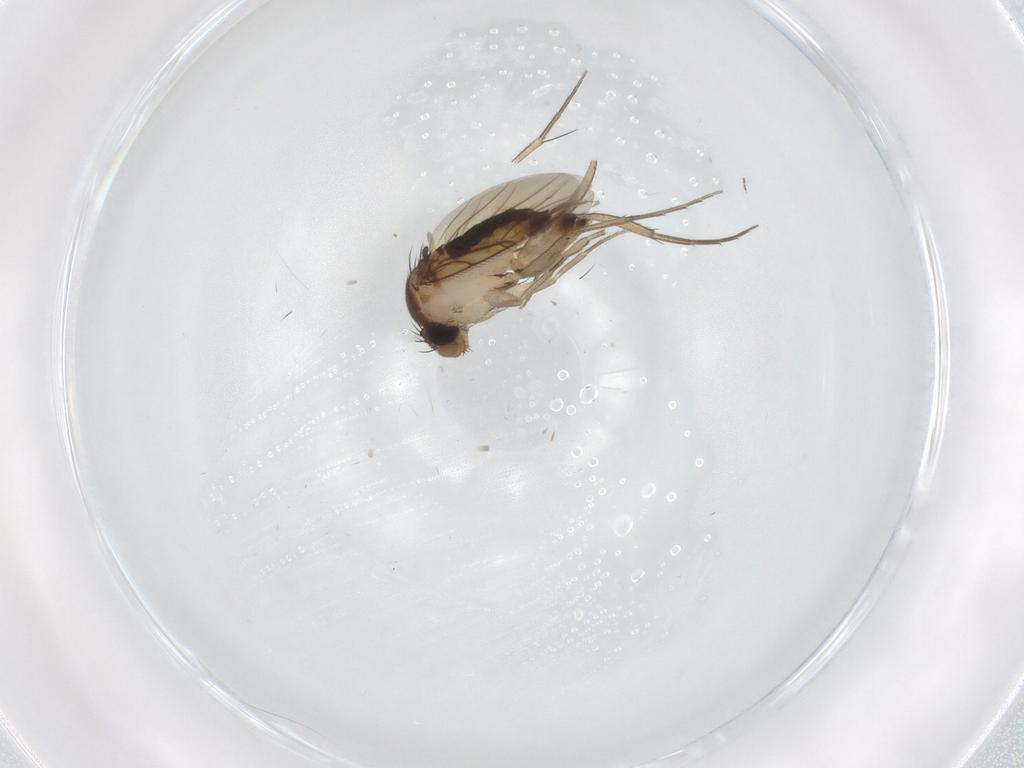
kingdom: Animalia
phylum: Arthropoda
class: Insecta
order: Diptera
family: Phoridae
